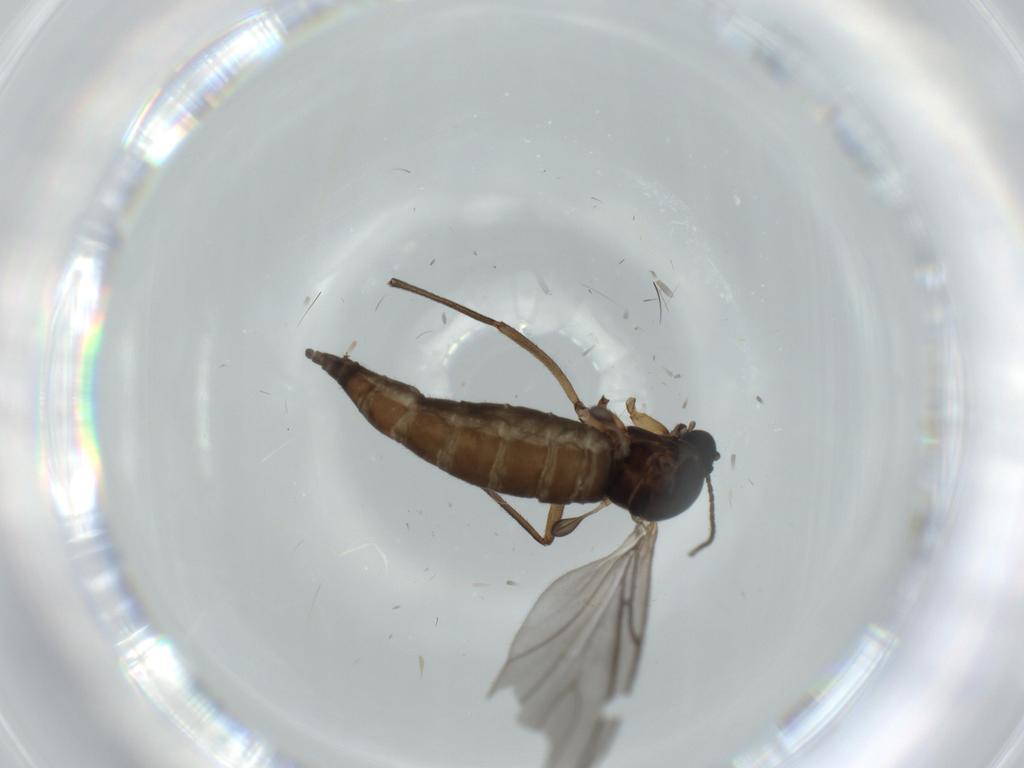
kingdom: Animalia
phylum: Arthropoda
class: Insecta
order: Diptera
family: Sciaridae
